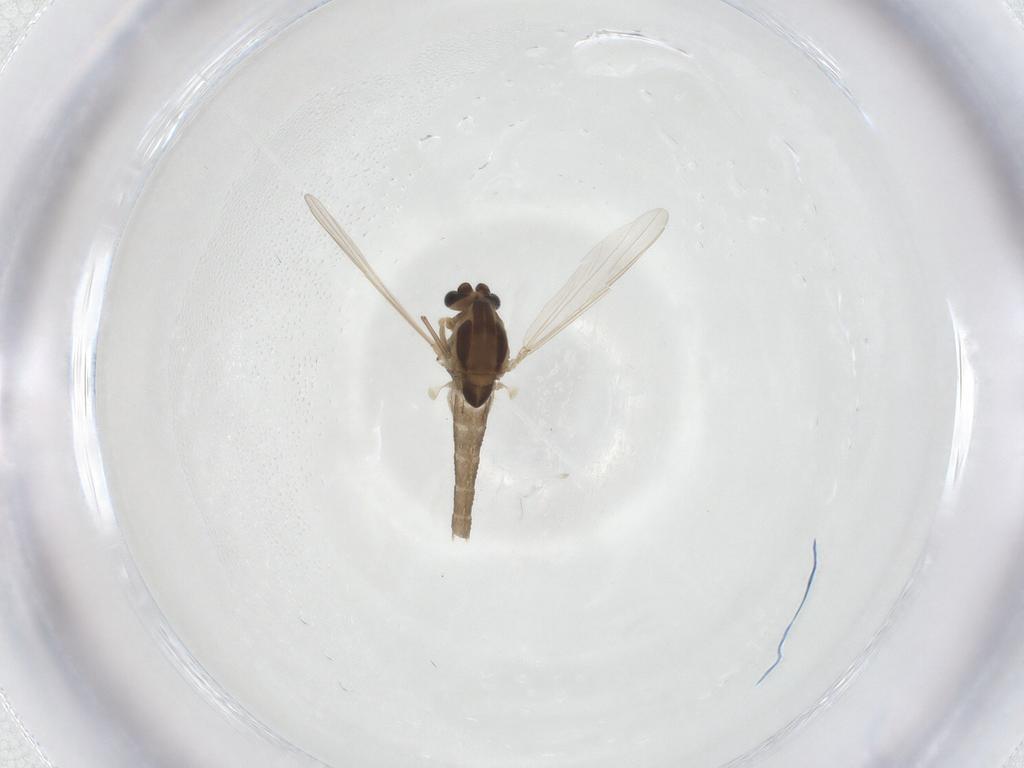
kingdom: Animalia
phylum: Arthropoda
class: Insecta
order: Diptera
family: Chironomidae
